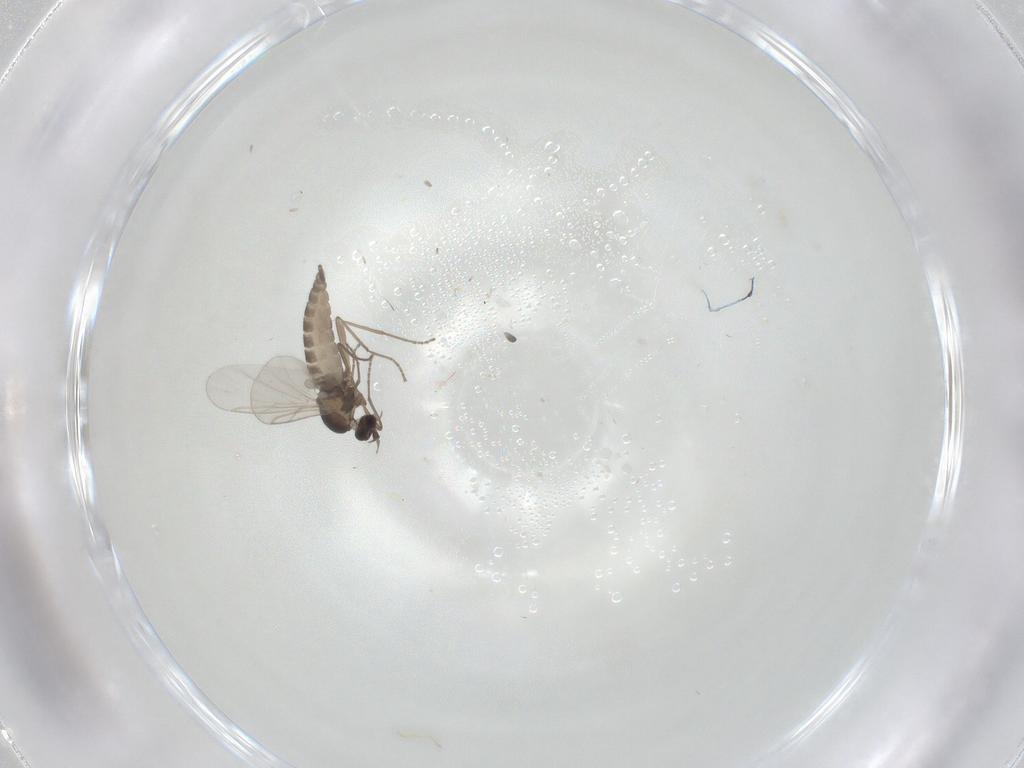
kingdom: Animalia
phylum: Arthropoda
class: Insecta
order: Diptera
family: Cecidomyiidae
